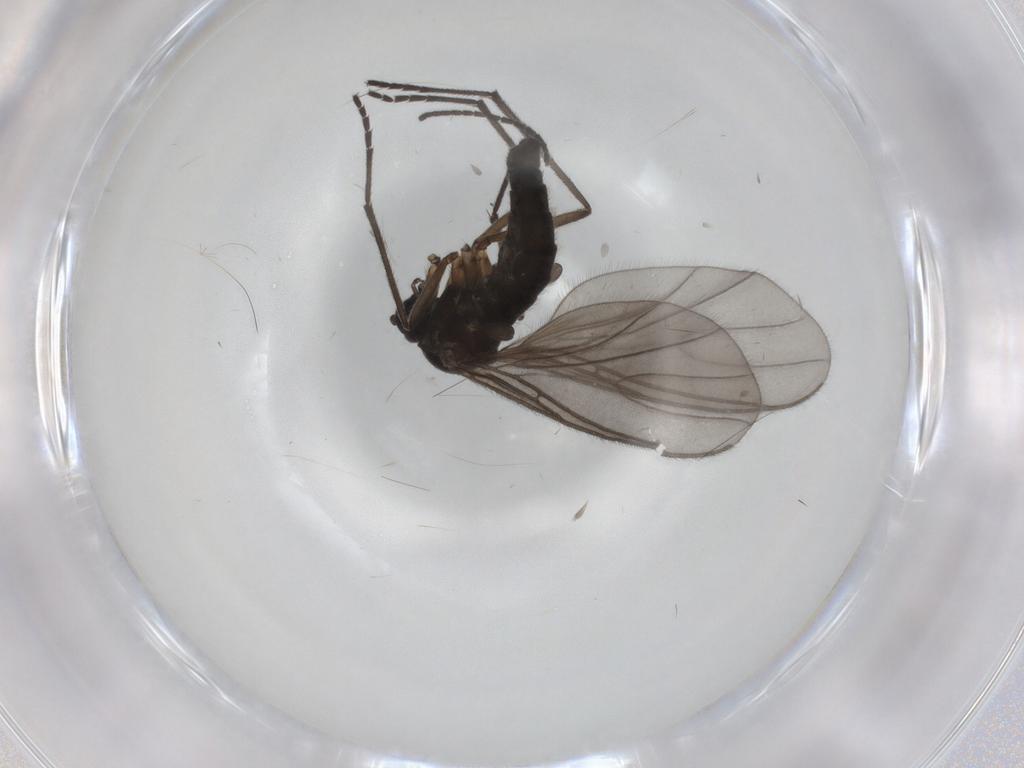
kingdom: Animalia
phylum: Arthropoda
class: Insecta
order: Diptera
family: Sciaridae
